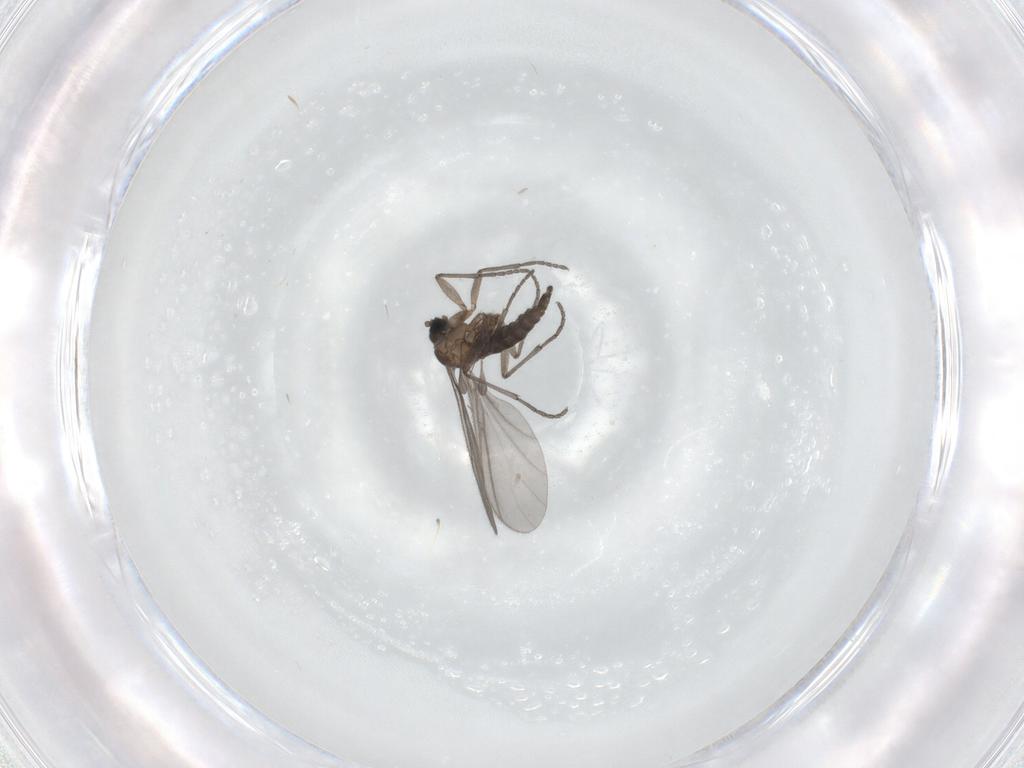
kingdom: Animalia
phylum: Arthropoda
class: Insecta
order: Diptera
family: Sciaridae
